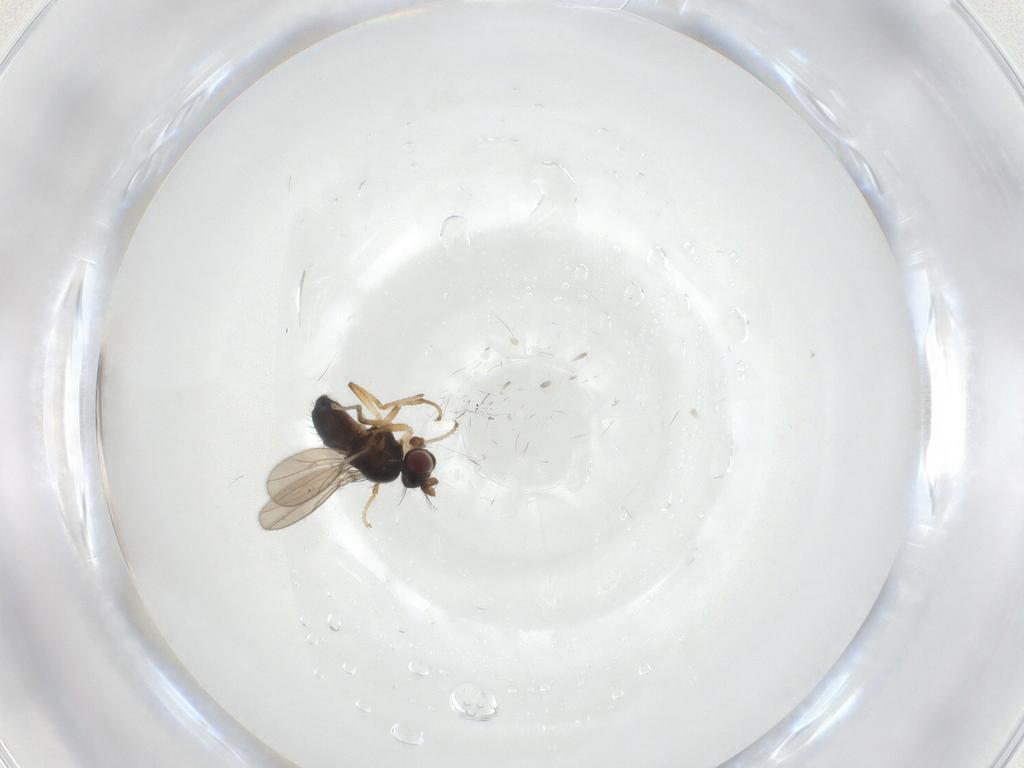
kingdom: Animalia
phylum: Arthropoda
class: Insecta
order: Diptera
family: Ephydridae
